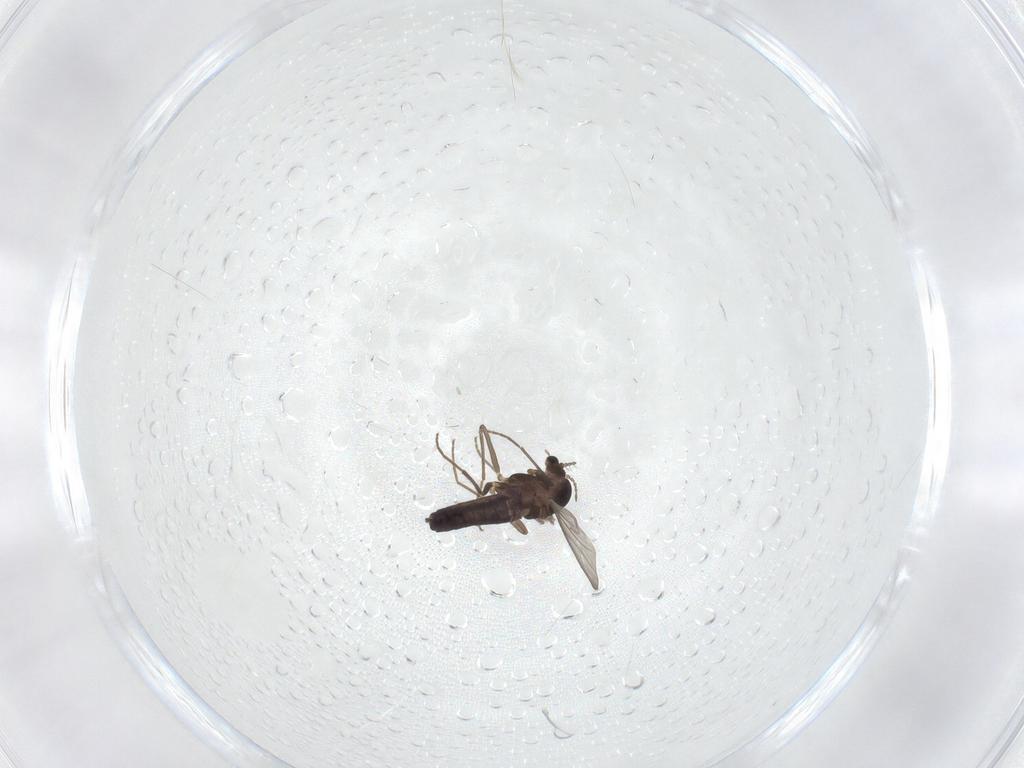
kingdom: Animalia
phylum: Arthropoda
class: Insecta
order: Diptera
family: Chironomidae
